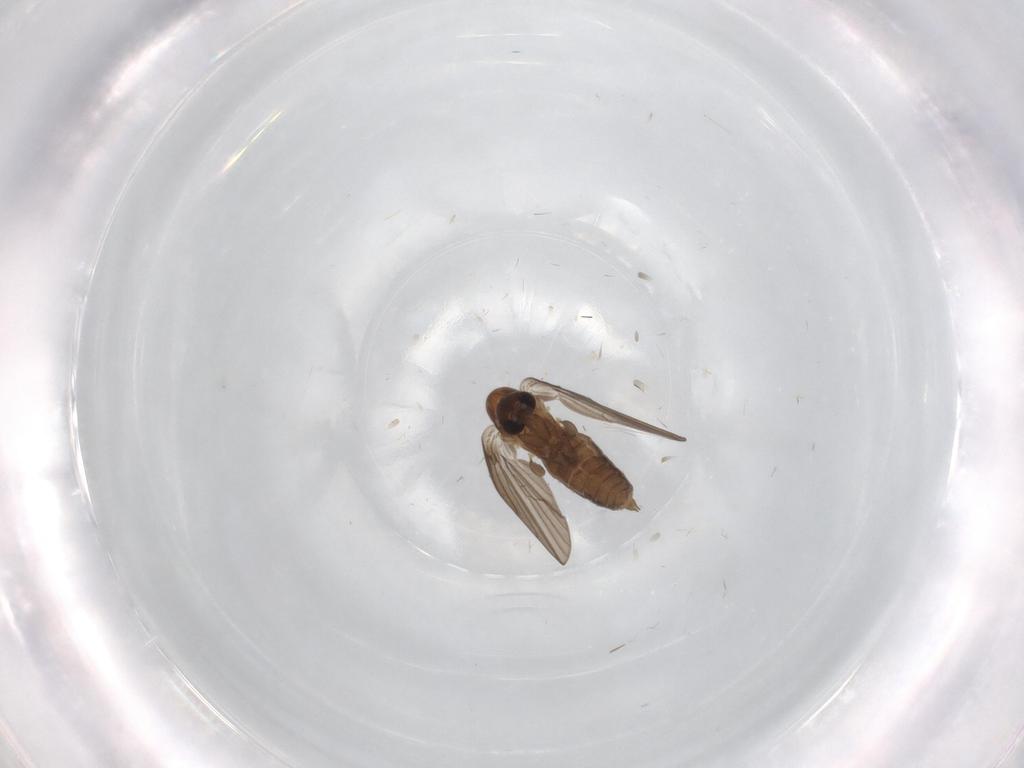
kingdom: Animalia
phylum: Arthropoda
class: Insecta
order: Diptera
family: Psychodidae
